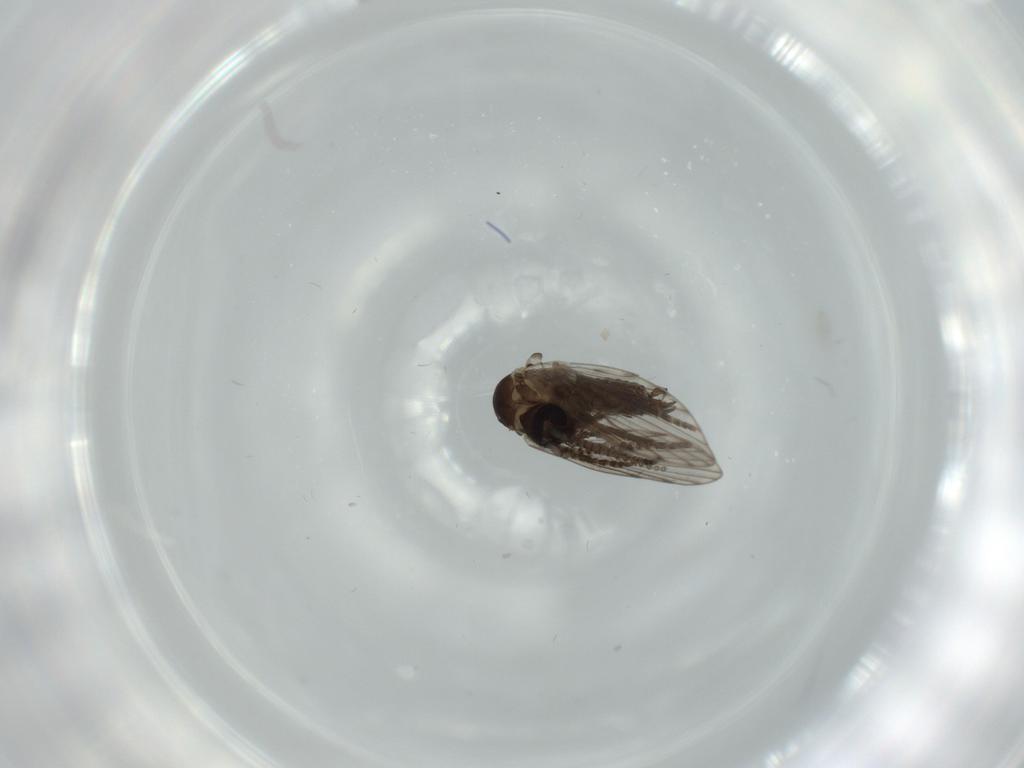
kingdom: Animalia
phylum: Arthropoda
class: Insecta
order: Diptera
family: Psychodidae
